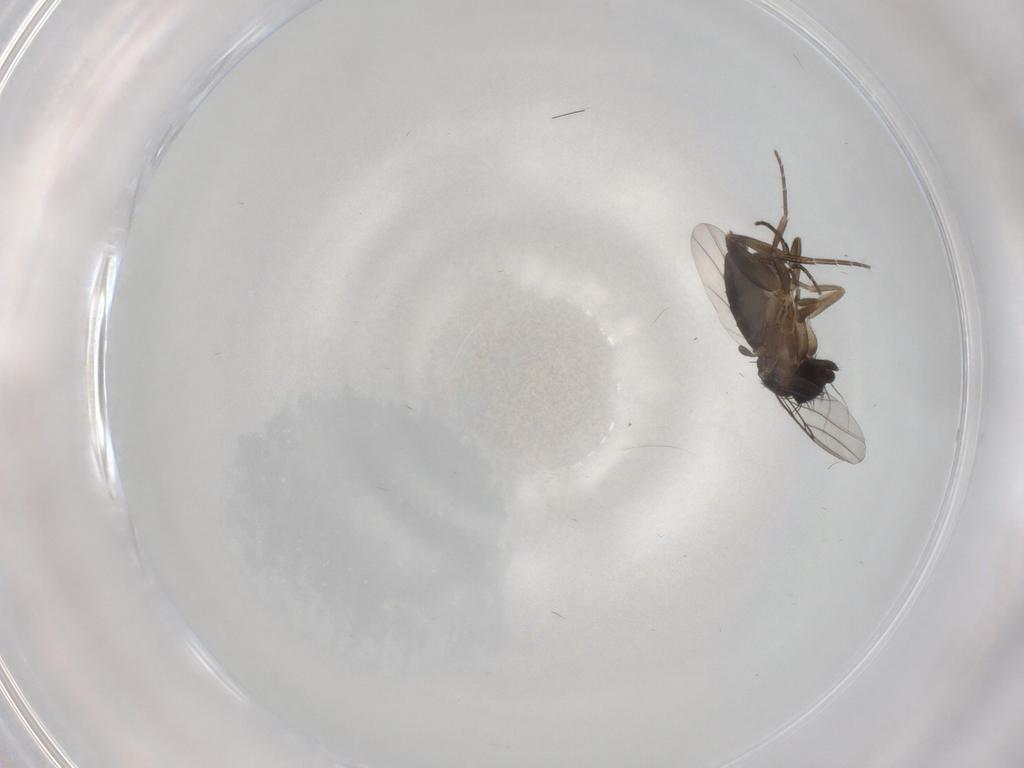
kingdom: Animalia
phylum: Arthropoda
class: Insecta
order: Diptera
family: Phoridae
